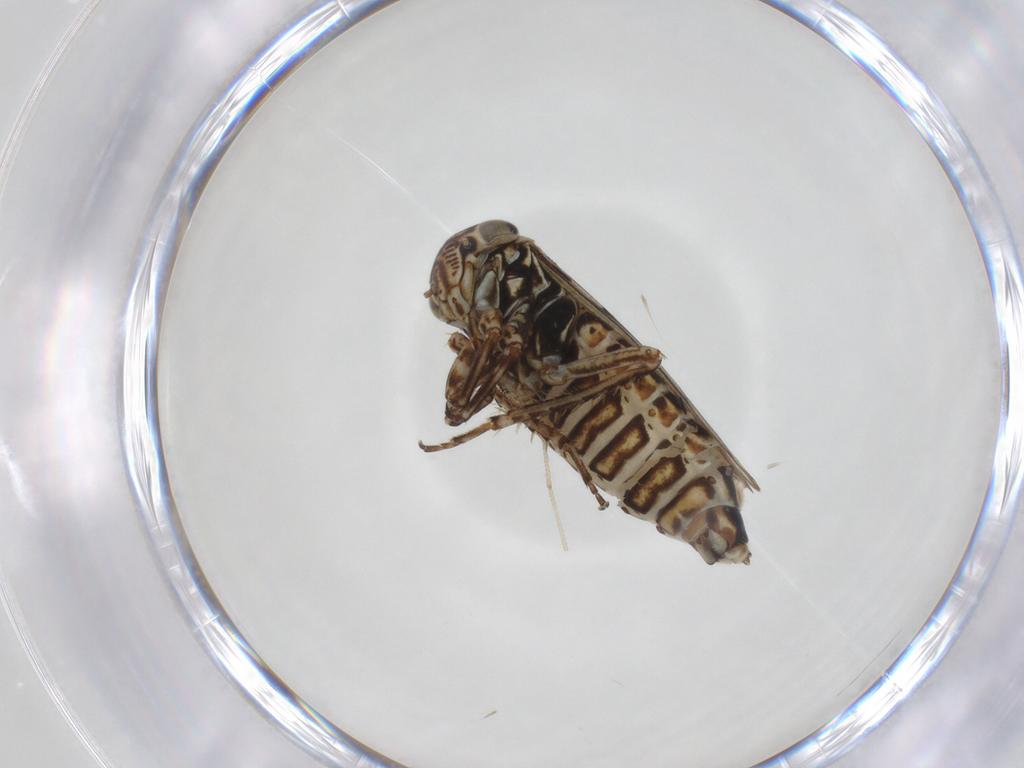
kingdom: Animalia
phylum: Arthropoda
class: Insecta
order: Hemiptera
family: Cicadellidae
